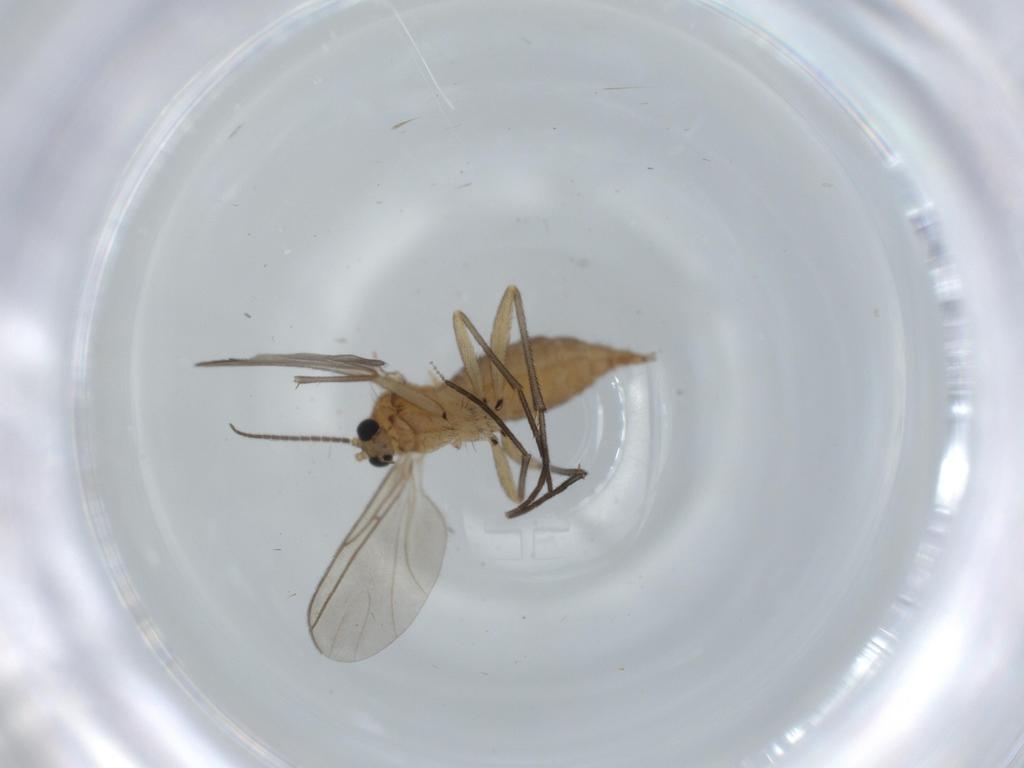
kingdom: Animalia
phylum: Arthropoda
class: Insecta
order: Diptera
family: Sciaridae
